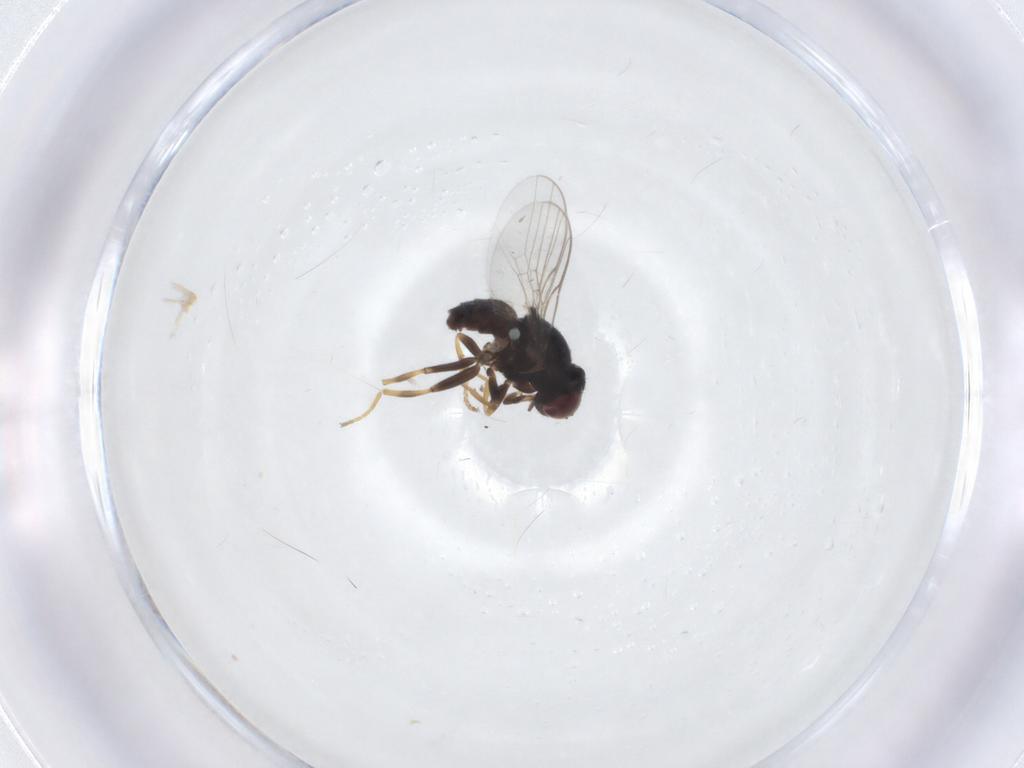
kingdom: Animalia
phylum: Arthropoda
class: Insecta
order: Diptera
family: Chloropidae
